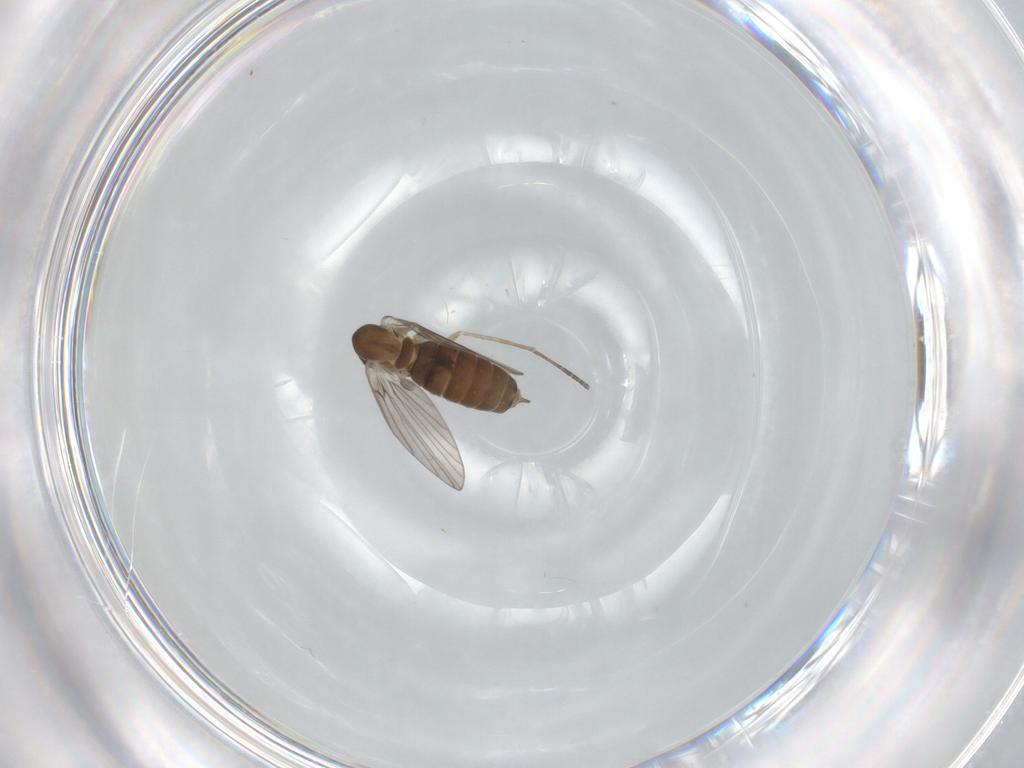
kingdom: Animalia
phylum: Arthropoda
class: Insecta
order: Diptera
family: Psychodidae
